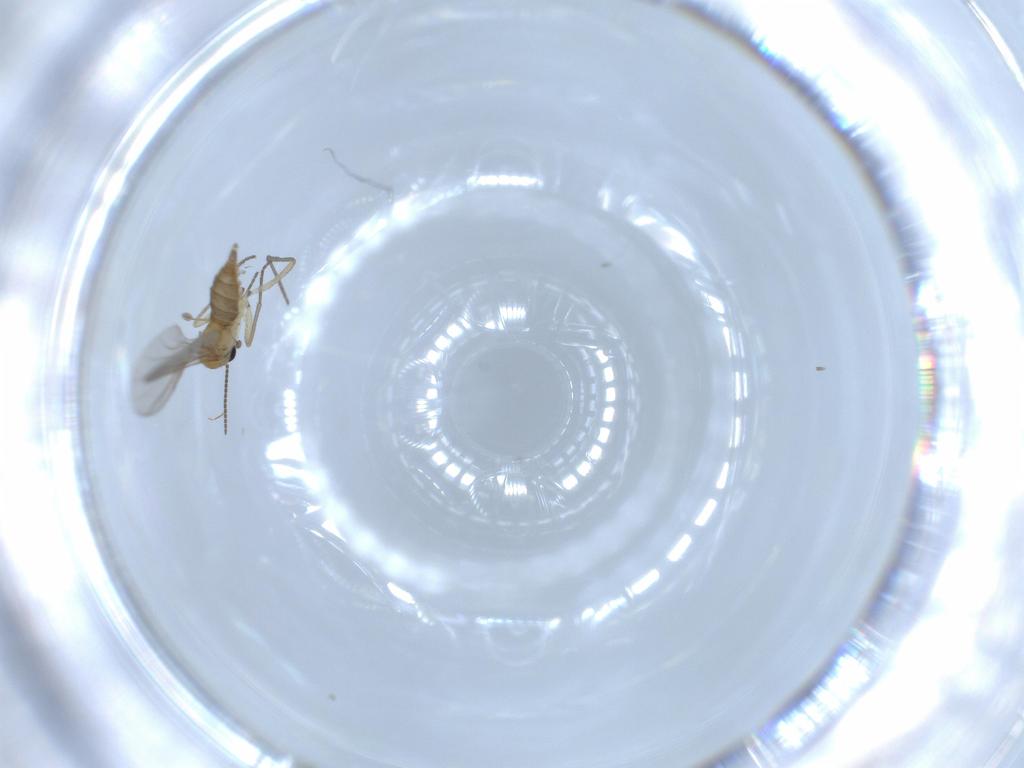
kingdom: Animalia
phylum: Arthropoda
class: Insecta
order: Diptera
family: Sciaridae
